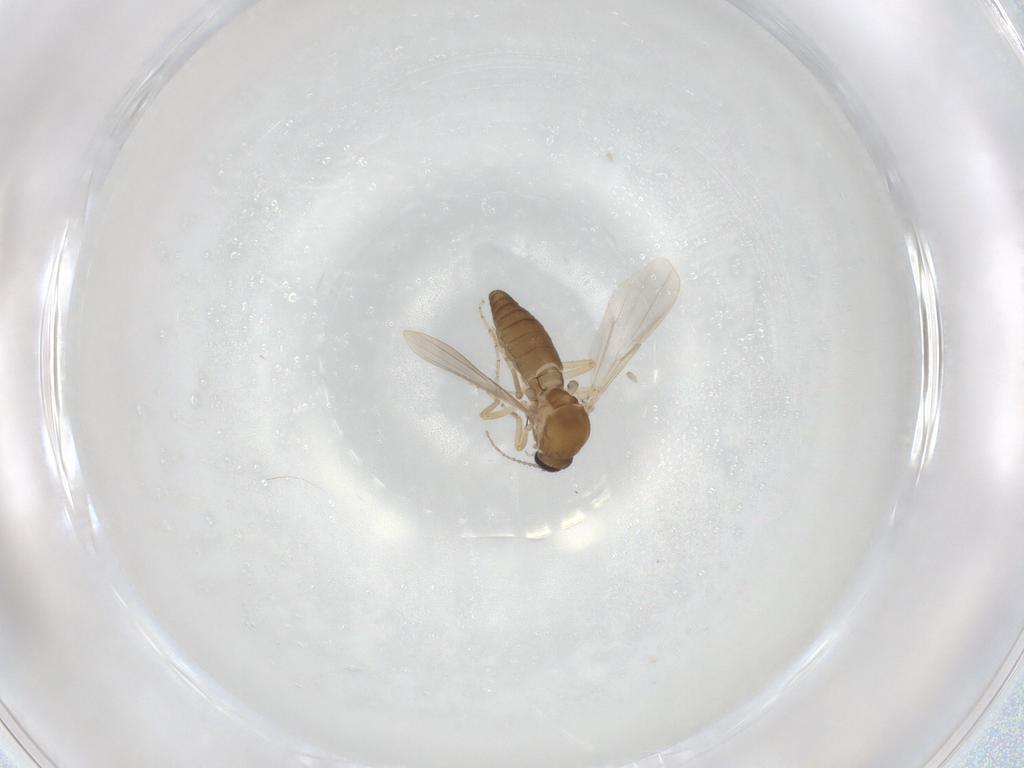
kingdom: Animalia
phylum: Arthropoda
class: Insecta
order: Diptera
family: Ceratopogonidae
